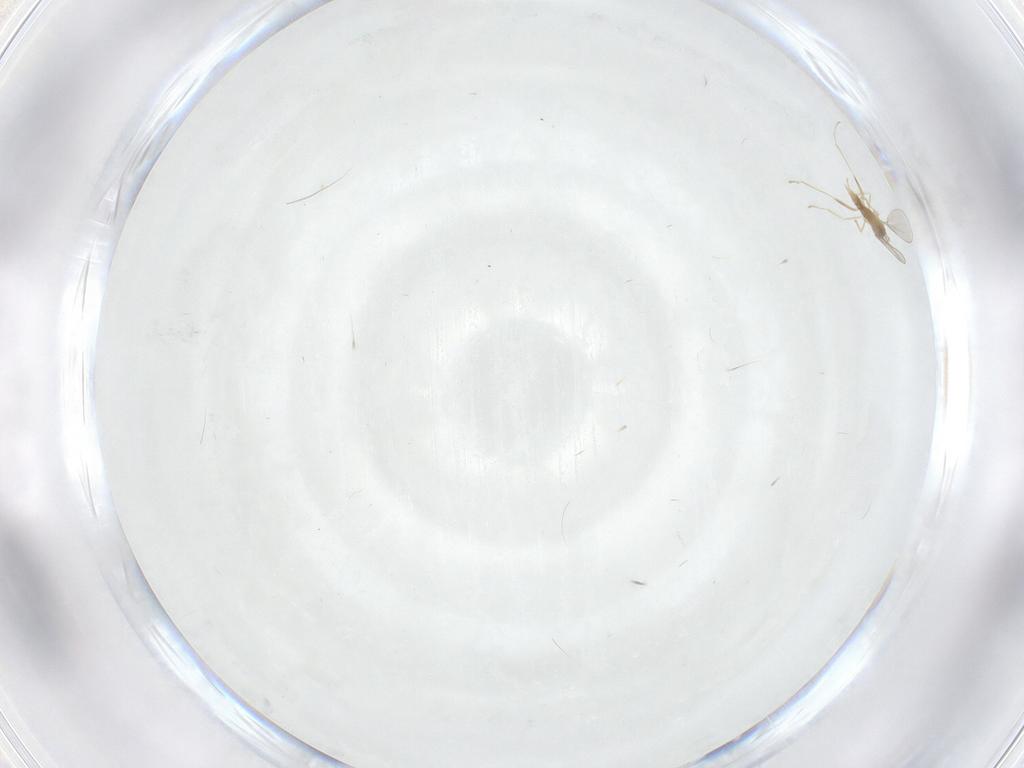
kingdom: Animalia
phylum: Arthropoda
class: Insecta
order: Diptera
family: Cecidomyiidae
